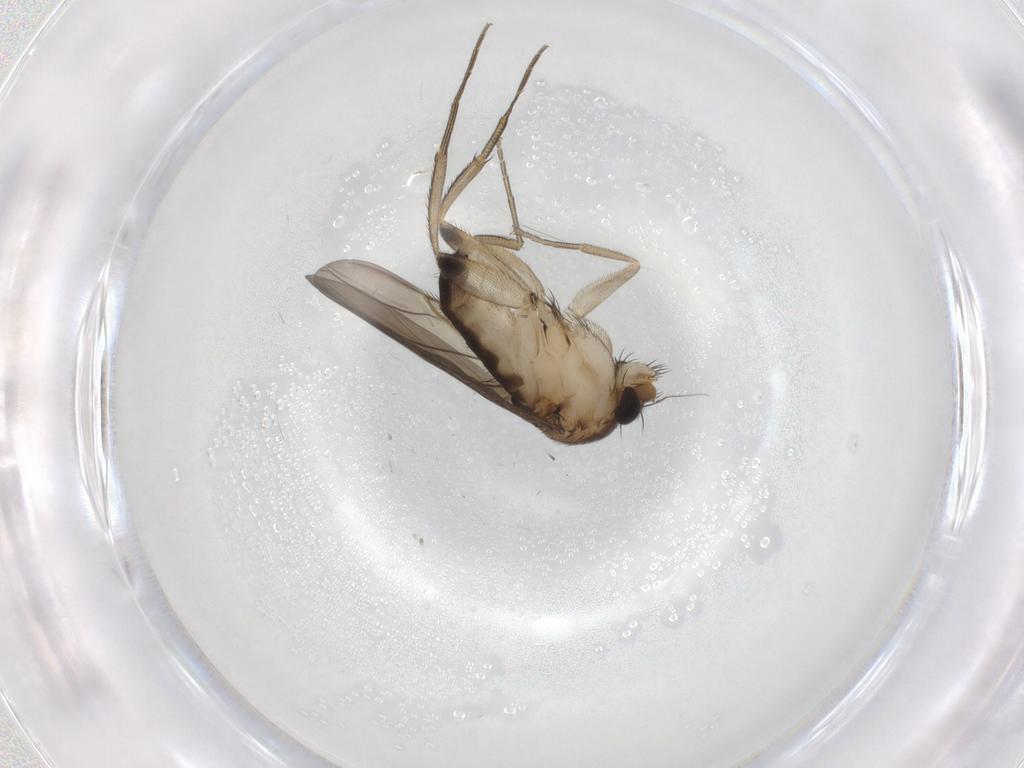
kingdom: Animalia
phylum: Arthropoda
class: Insecta
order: Diptera
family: Phoridae
